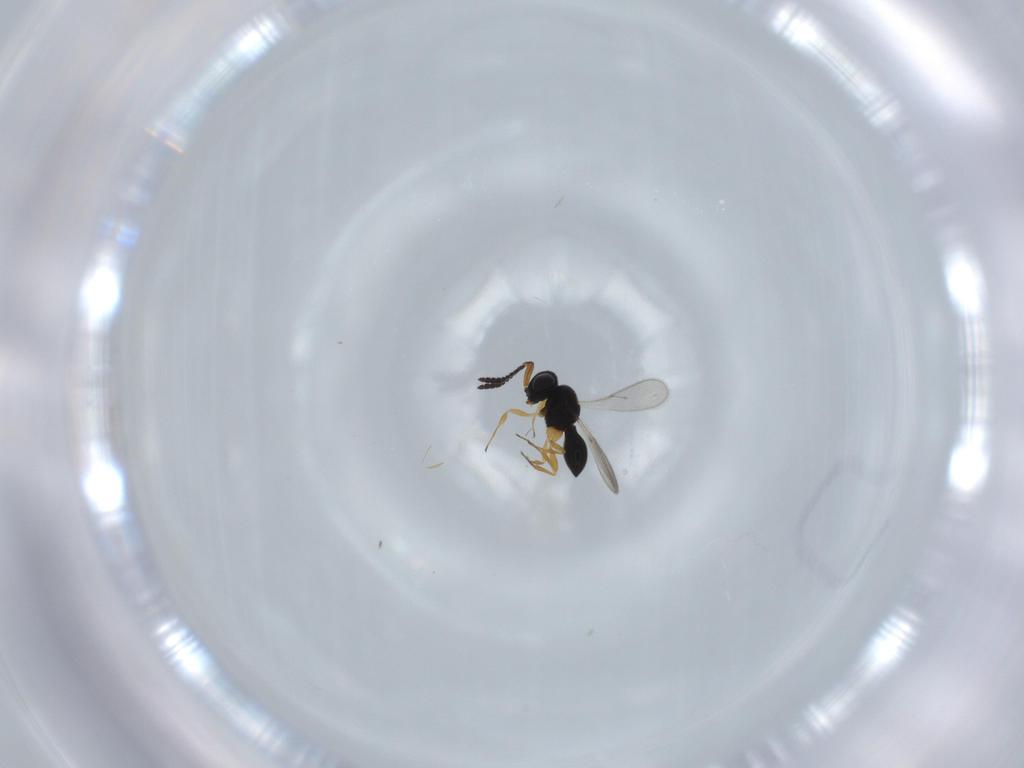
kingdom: Animalia
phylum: Arthropoda
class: Insecta
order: Hymenoptera
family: Scelionidae
